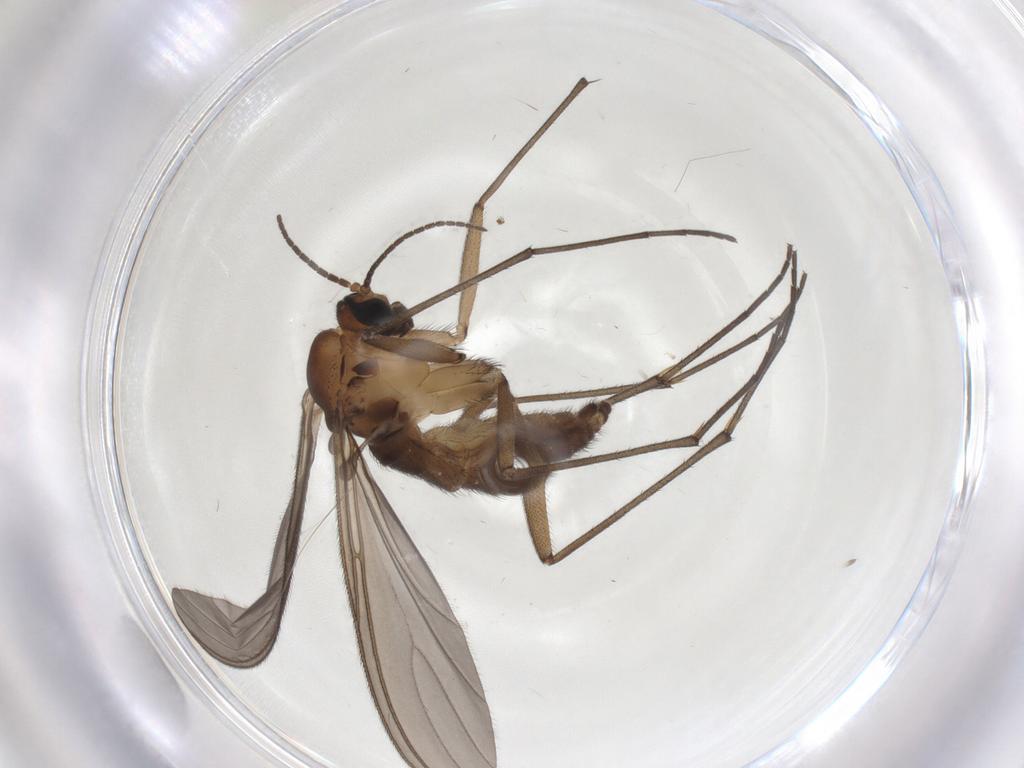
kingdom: Animalia
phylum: Arthropoda
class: Insecta
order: Diptera
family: Sciaridae
